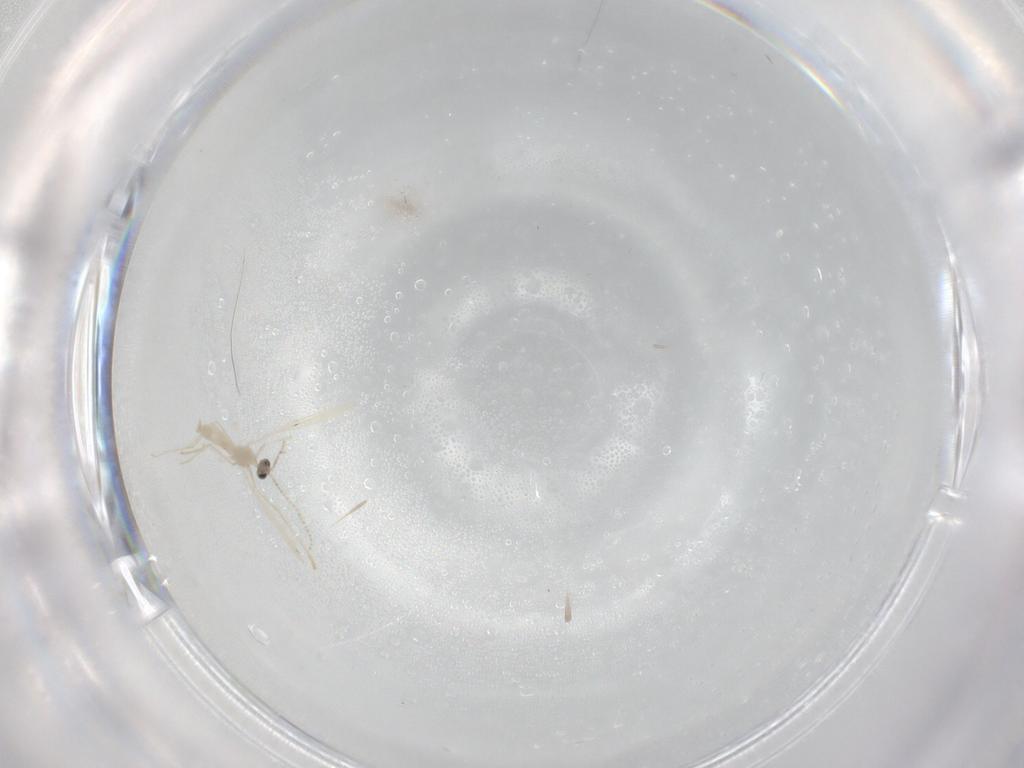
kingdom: Animalia
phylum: Arthropoda
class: Insecta
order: Diptera
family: Cecidomyiidae
